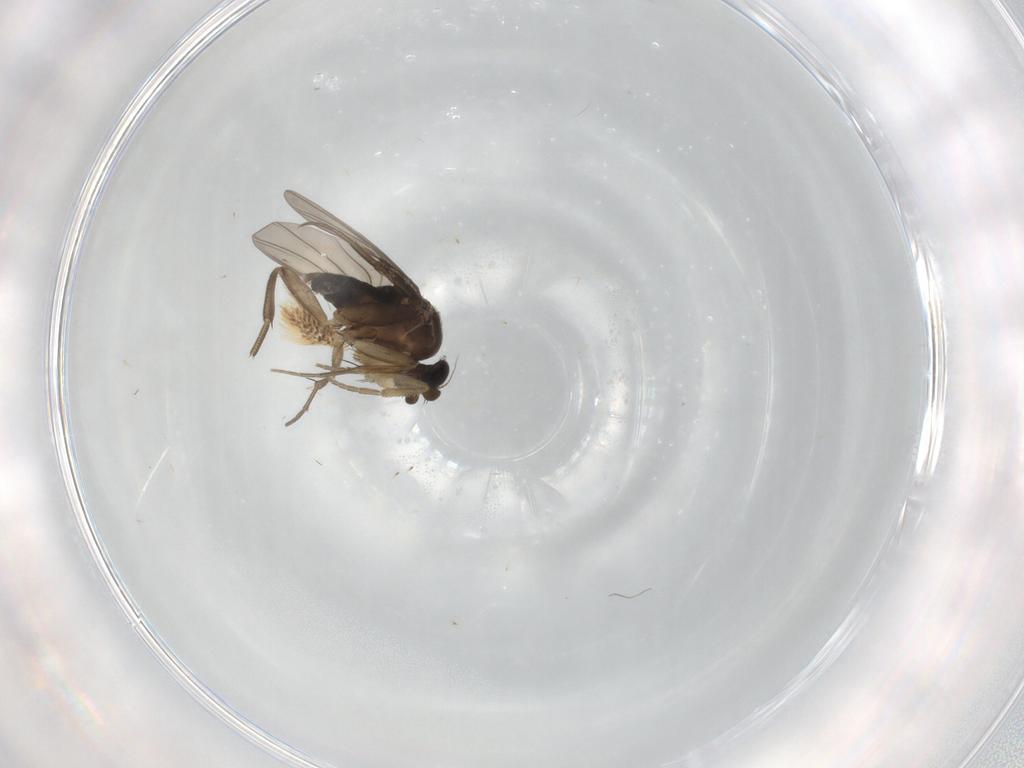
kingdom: Animalia
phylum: Arthropoda
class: Insecta
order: Diptera
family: Phoridae
